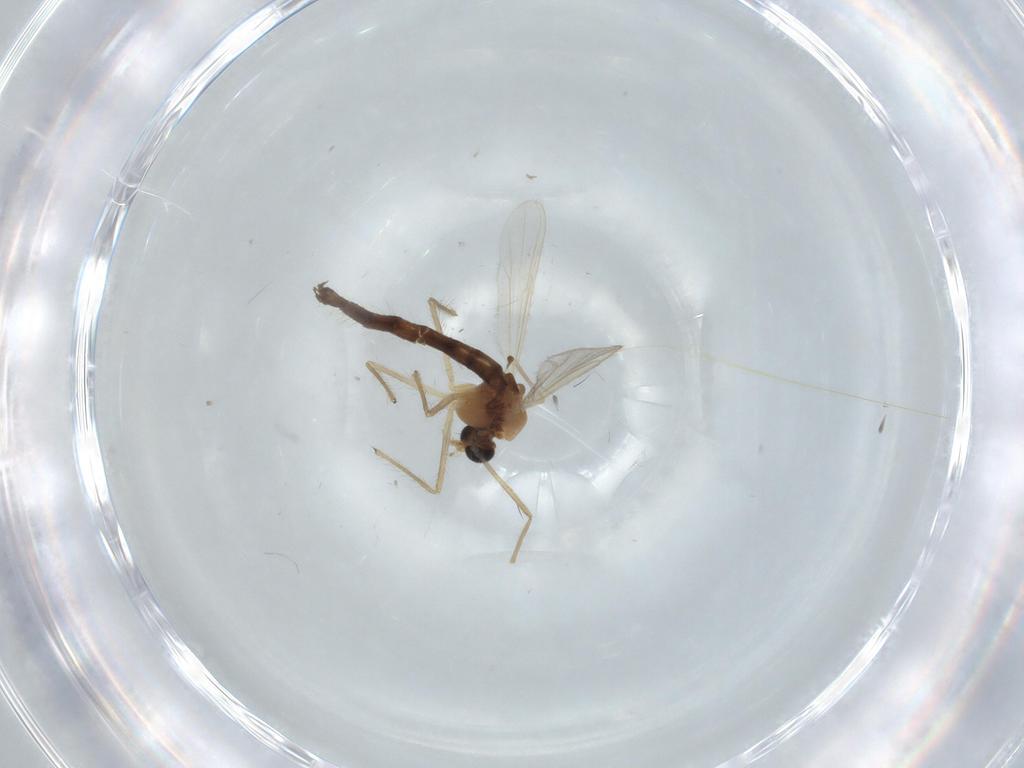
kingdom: Animalia
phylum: Arthropoda
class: Insecta
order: Diptera
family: Chironomidae
